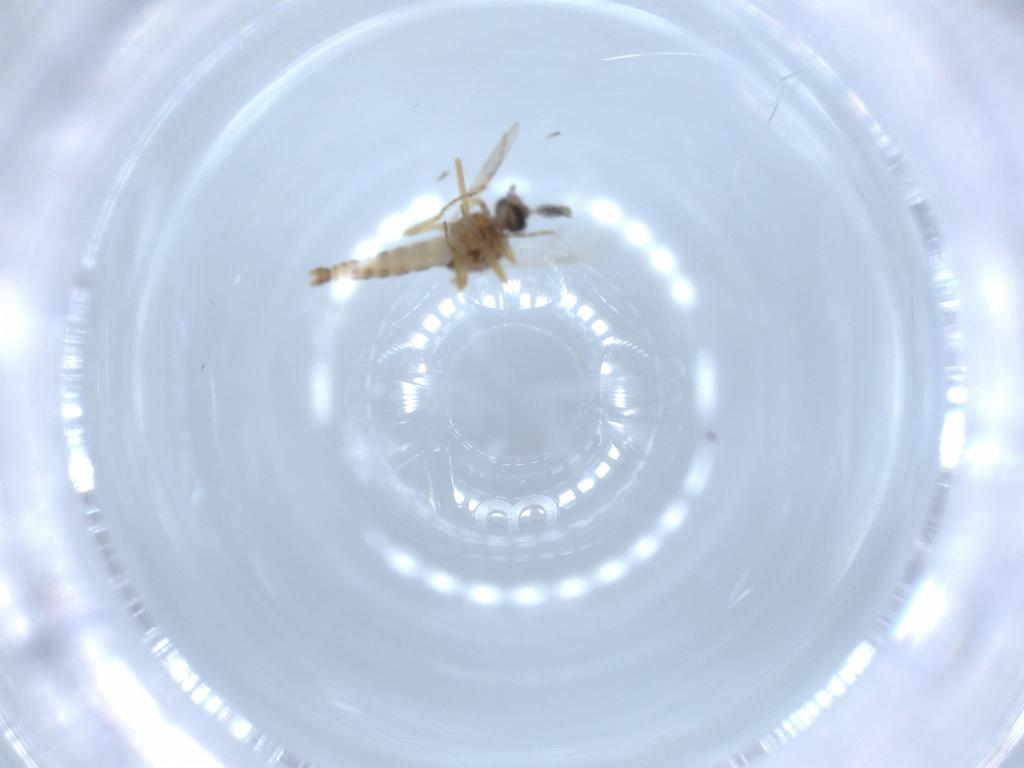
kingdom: Animalia
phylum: Arthropoda
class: Insecta
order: Diptera
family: Ceratopogonidae
